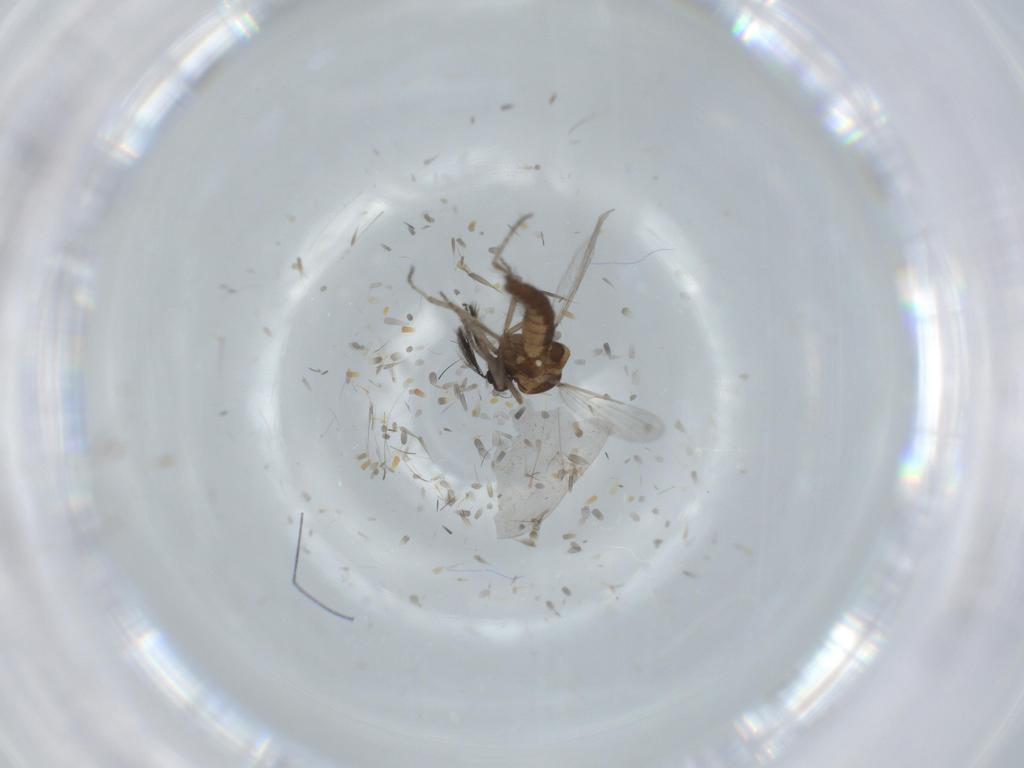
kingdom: Animalia
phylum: Arthropoda
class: Insecta
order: Diptera
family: Ceratopogonidae
